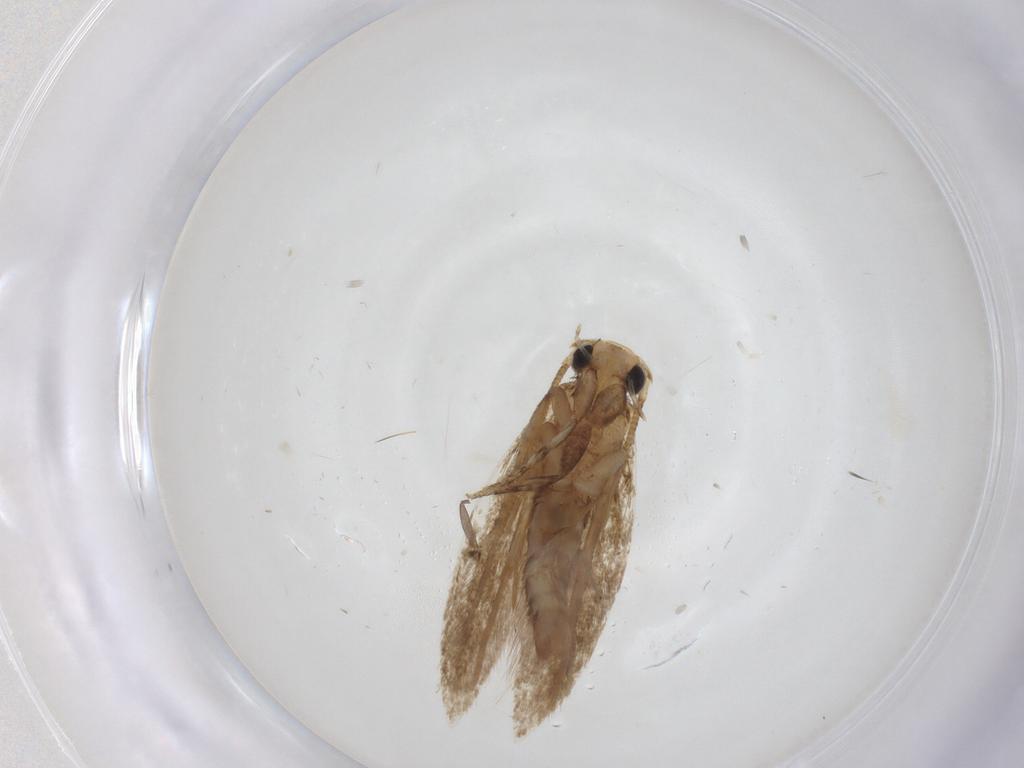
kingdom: Animalia
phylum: Arthropoda
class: Insecta
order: Lepidoptera
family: Tineidae
